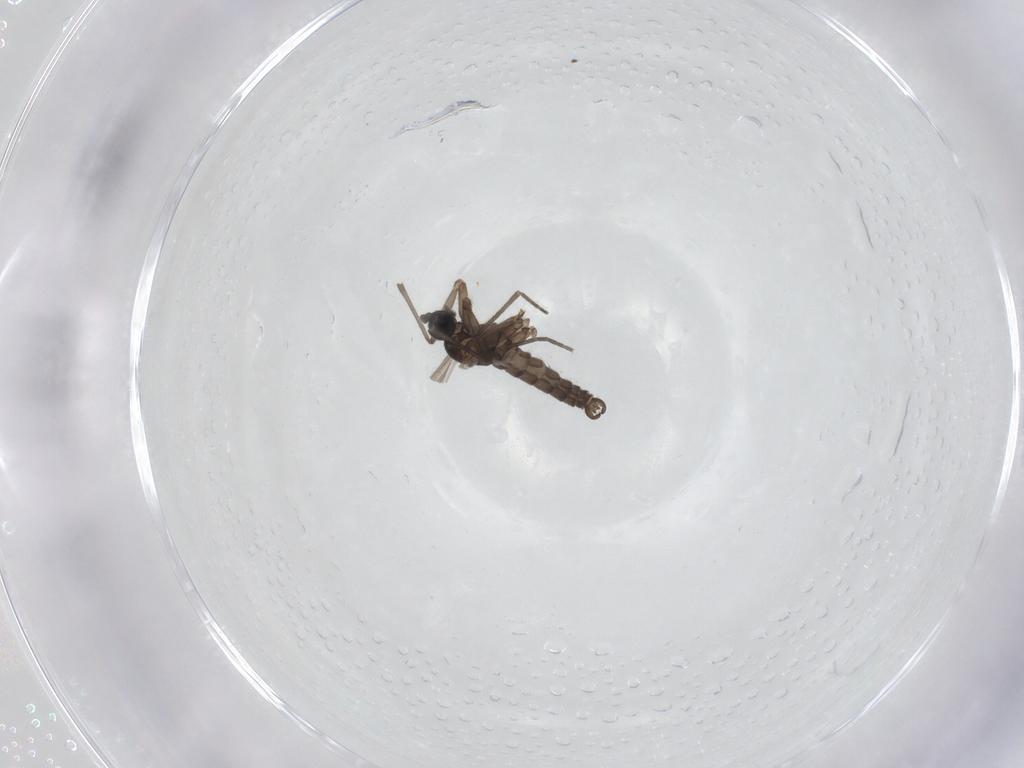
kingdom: Animalia
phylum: Arthropoda
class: Insecta
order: Diptera
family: Sciaridae
